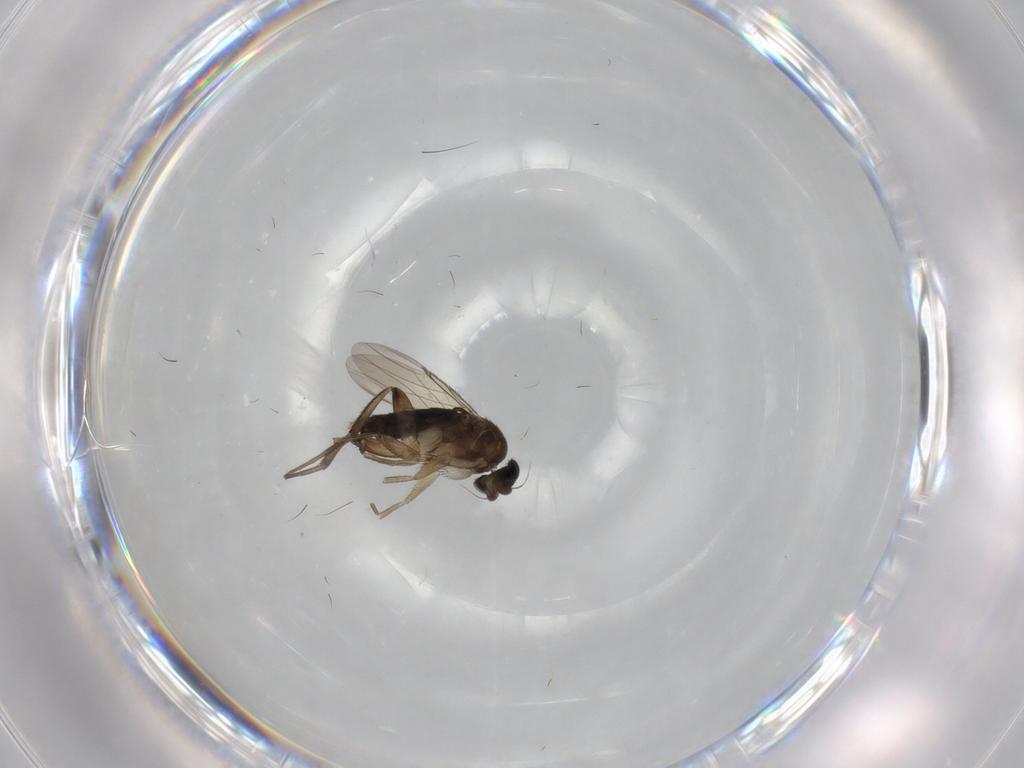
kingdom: Animalia
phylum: Arthropoda
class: Insecta
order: Diptera
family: Phoridae
